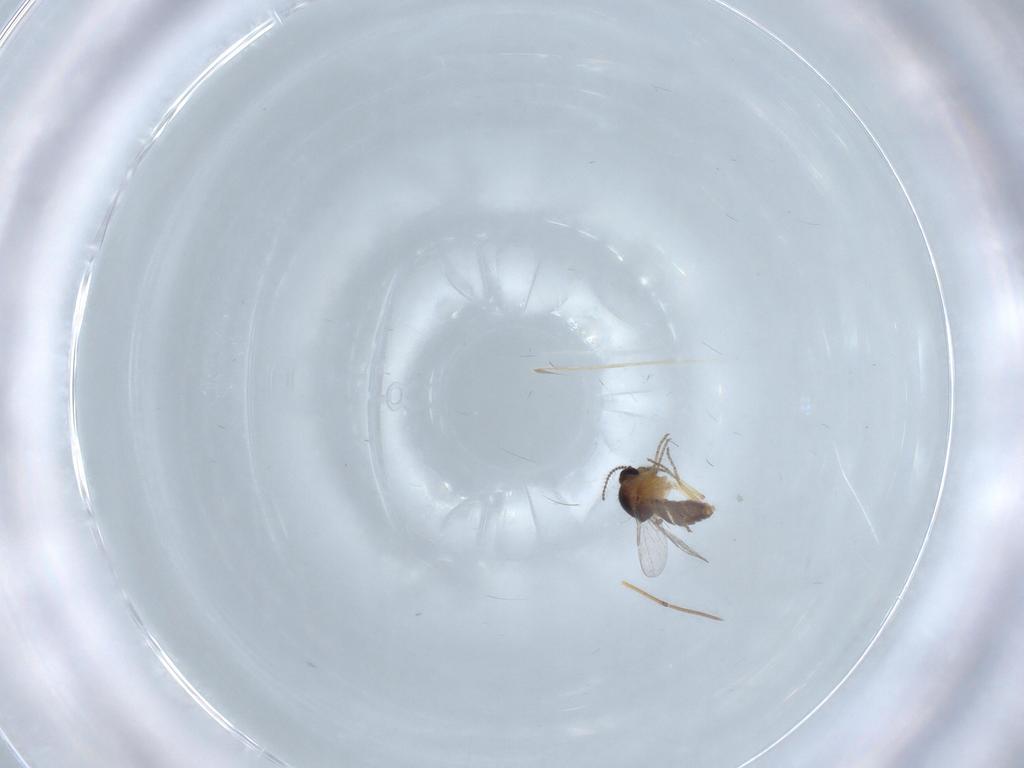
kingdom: Animalia
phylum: Arthropoda
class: Insecta
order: Diptera
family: Ceratopogonidae
